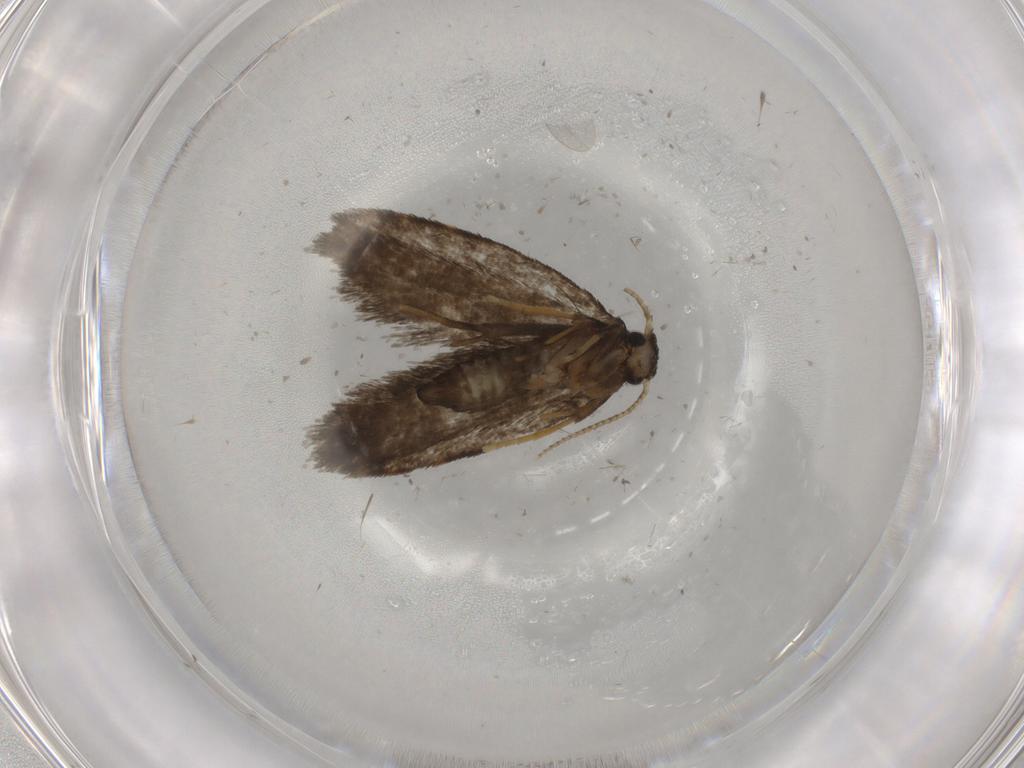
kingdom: Animalia
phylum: Arthropoda
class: Insecta
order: Lepidoptera
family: Psychidae
